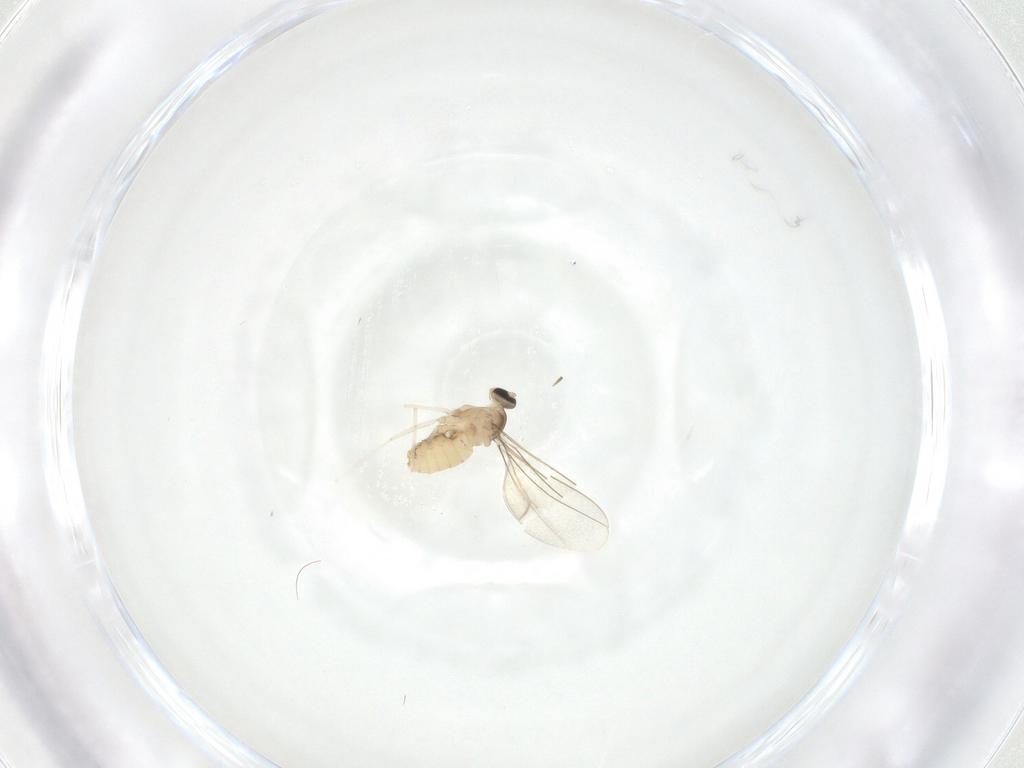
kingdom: Animalia
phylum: Arthropoda
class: Insecta
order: Diptera
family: Cecidomyiidae
